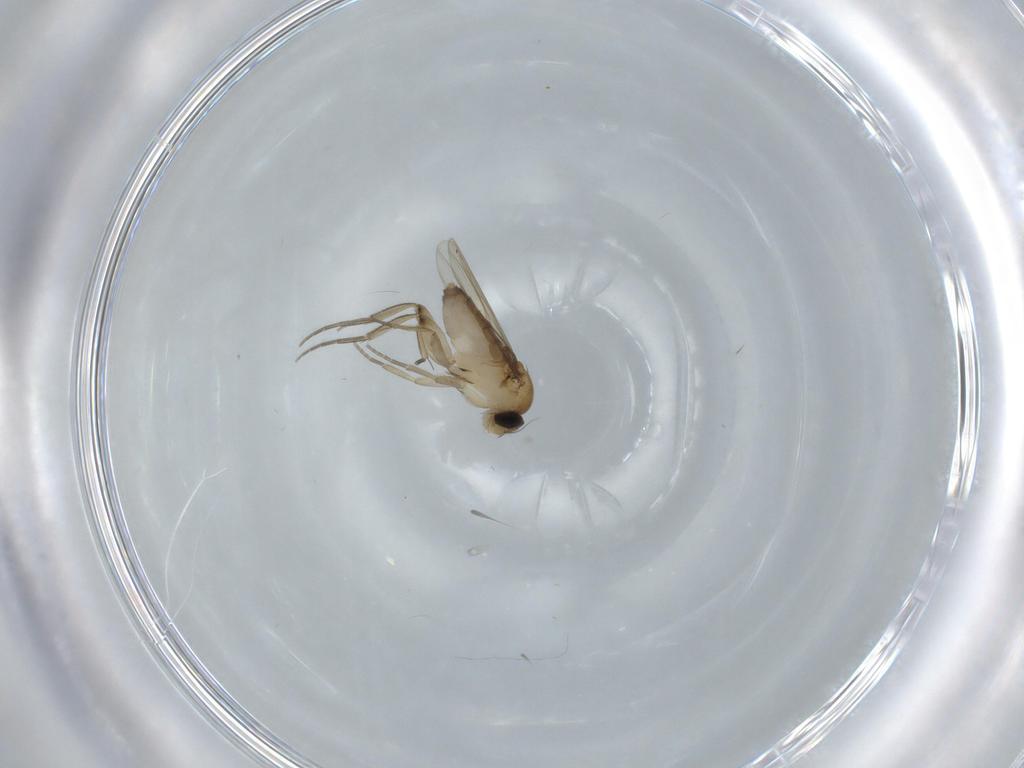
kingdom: Animalia
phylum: Arthropoda
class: Insecta
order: Diptera
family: Phoridae
